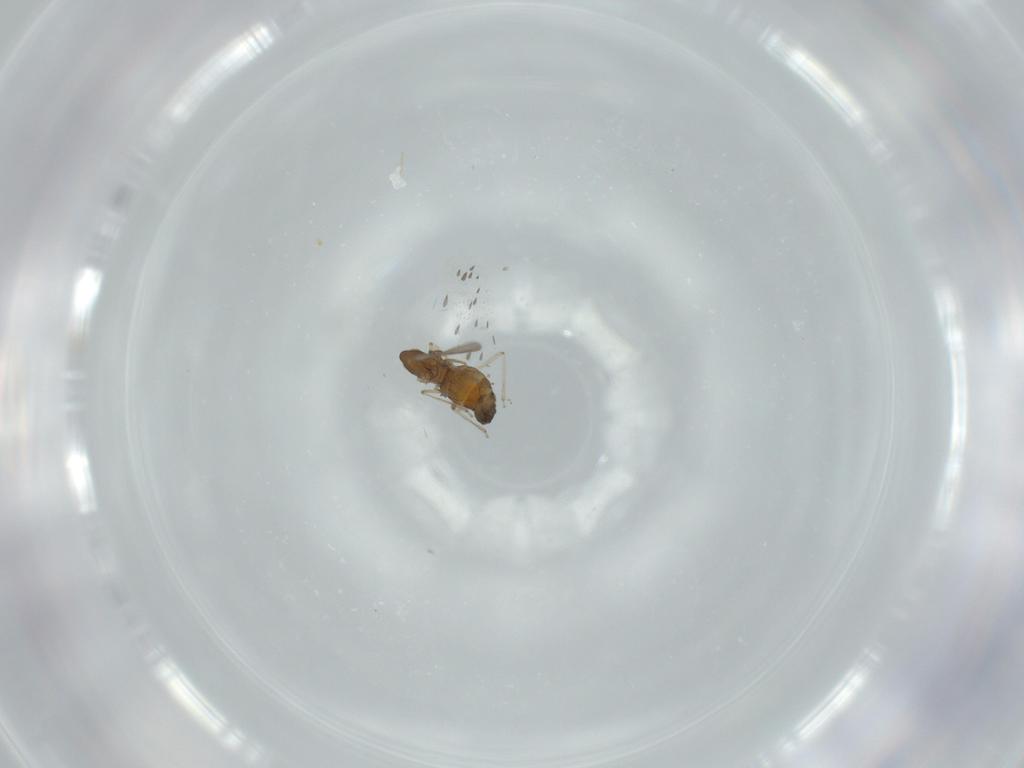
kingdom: Animalia
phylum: Arthropoda
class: Insecta
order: Diptera
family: Cecidomyiidae
